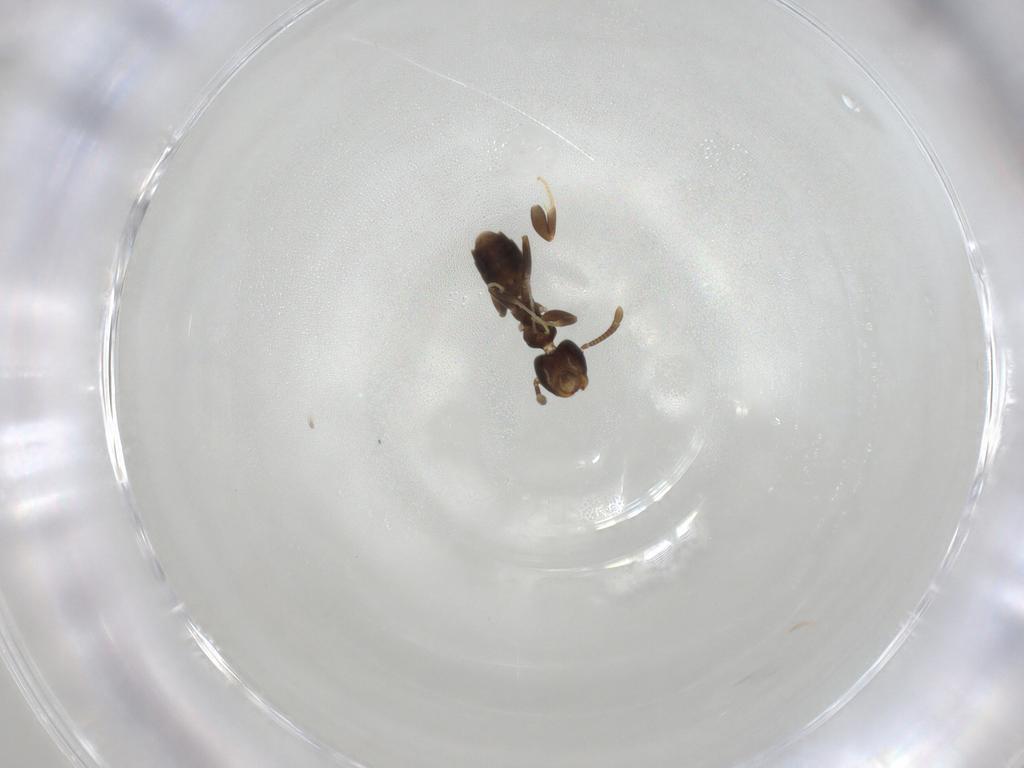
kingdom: Animalia
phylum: Arthropoda
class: Insecta
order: Hymenoptera
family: Formicidae
